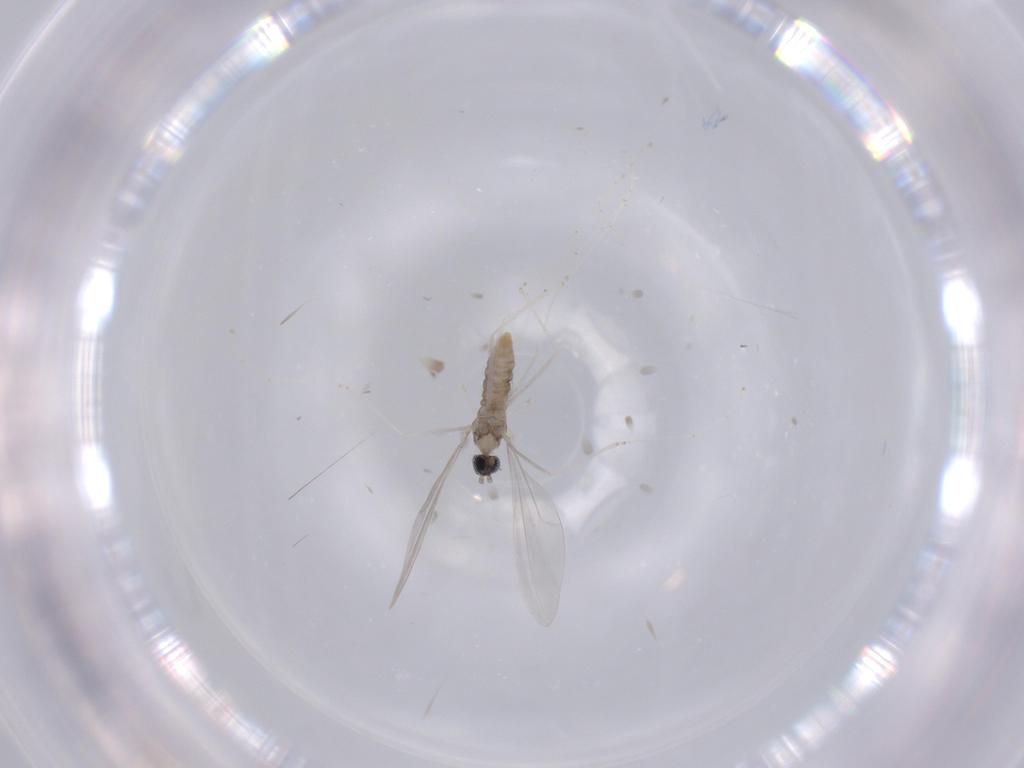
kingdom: Animalia
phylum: Arthropoda
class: Insecta
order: Diptera
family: Cecidomyiidae
